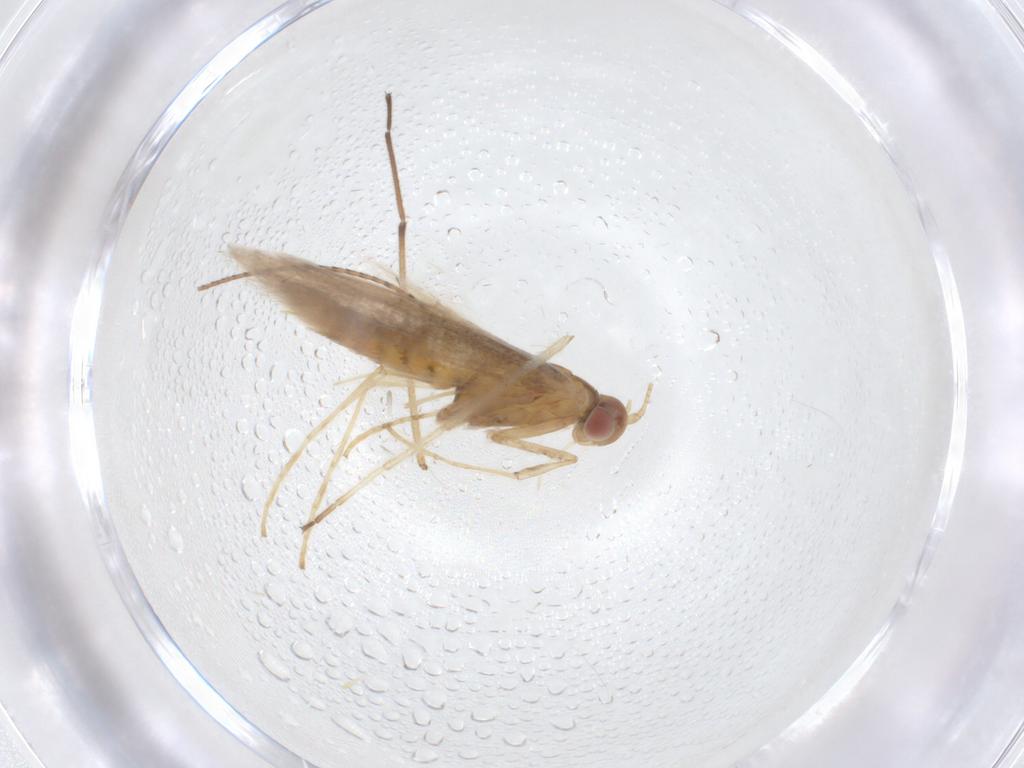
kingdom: Animalia
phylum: Arthropoda
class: Insecta
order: Lepidoptera
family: Gracillariidae
